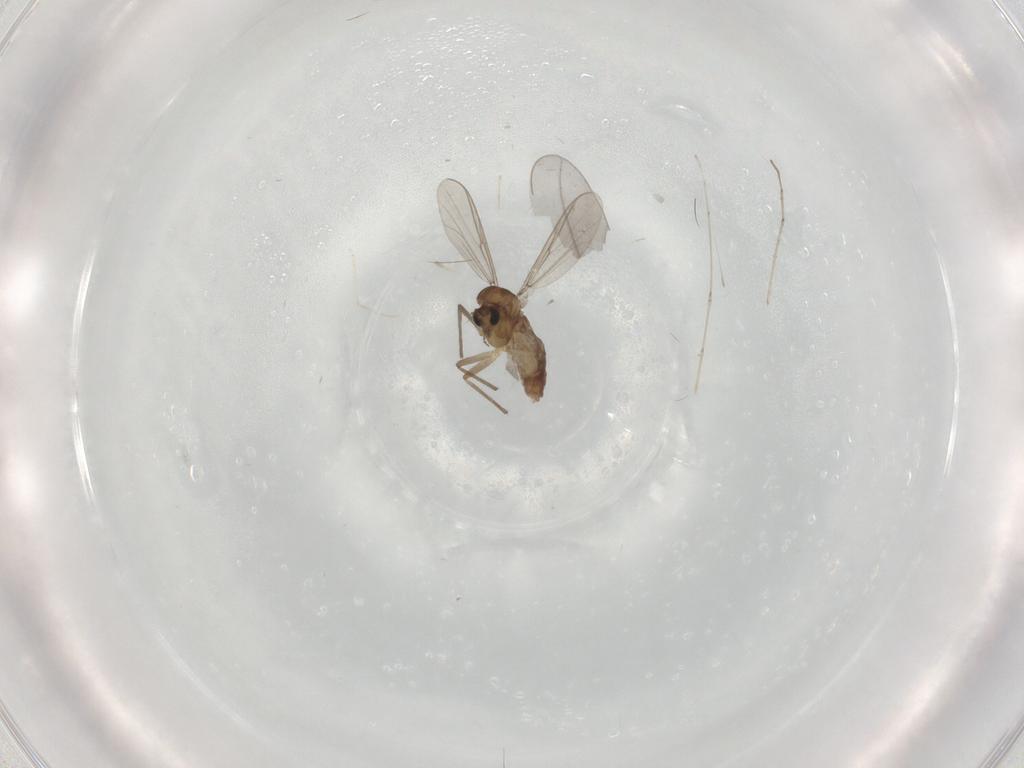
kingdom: Animalia
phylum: Arthropoda
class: Insecta
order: Diptera
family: Chironomidae
